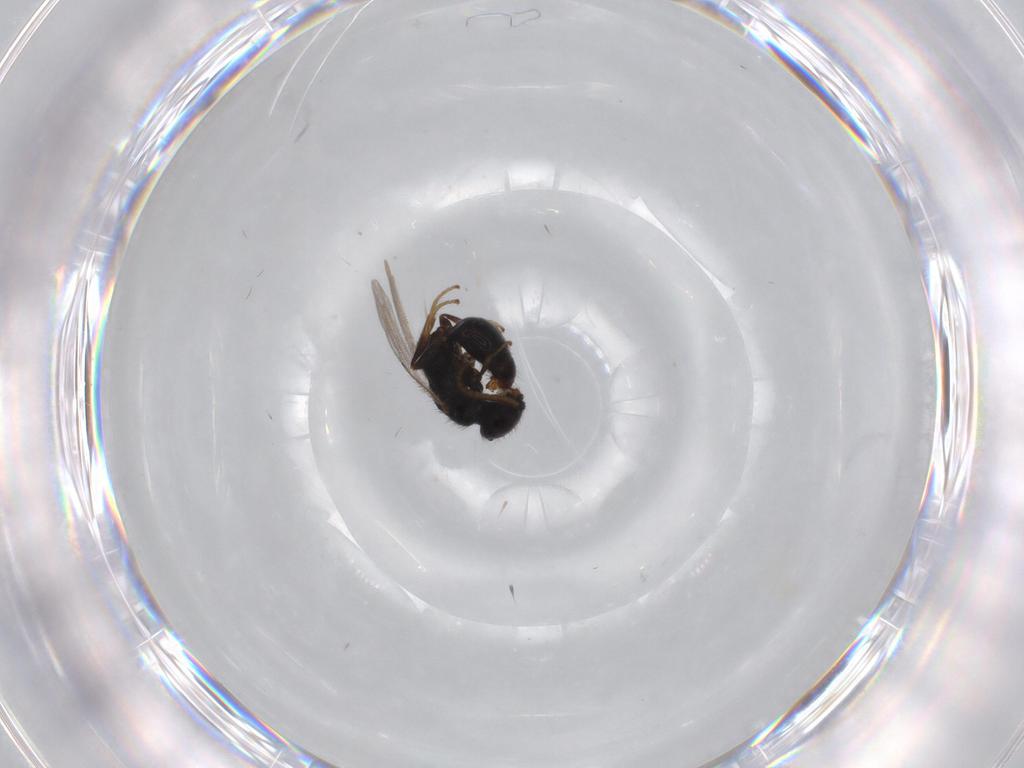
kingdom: Animalia
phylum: Arthropoda
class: Insecta
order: Hymenoptera
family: Bethylidae
